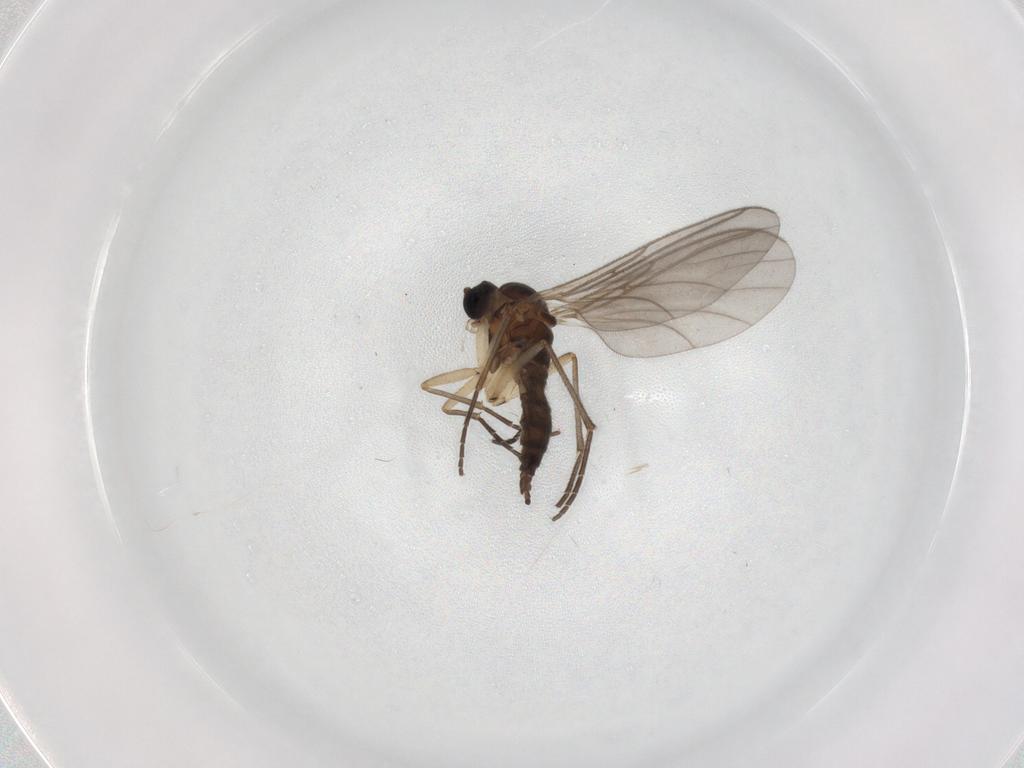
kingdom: Animalia
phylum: Arthropoda
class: Insecta
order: Diptera
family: Sciaridae
